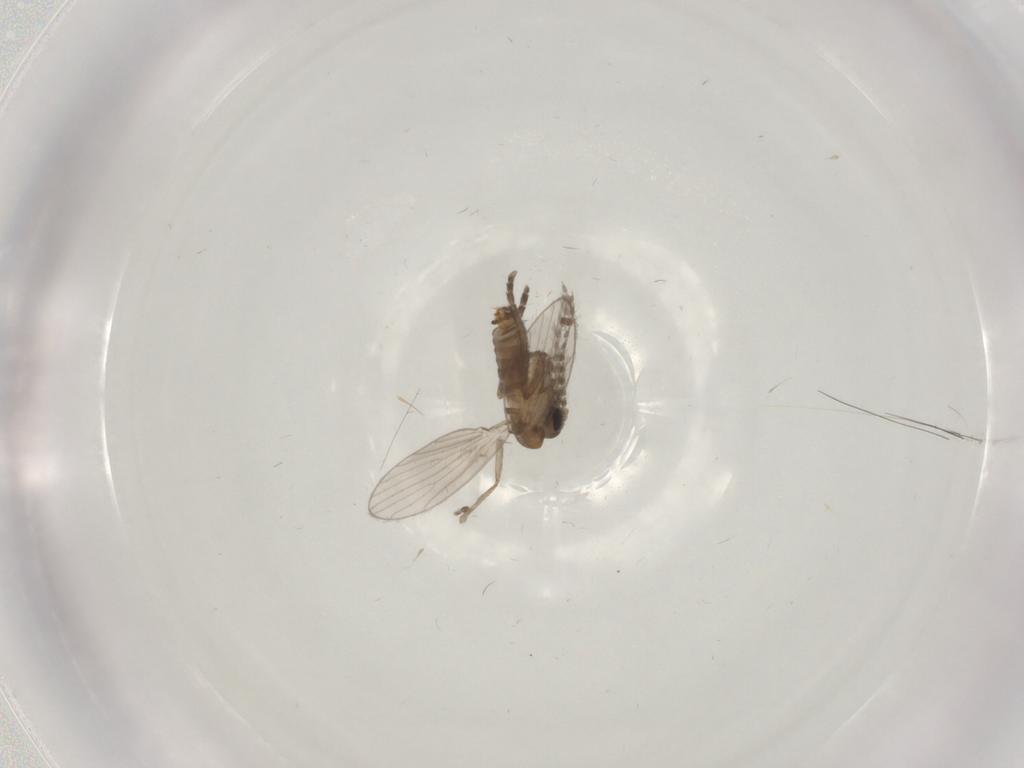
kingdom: Animalia
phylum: Arthropoda
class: Insecta
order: Diptera
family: Psychodidae
